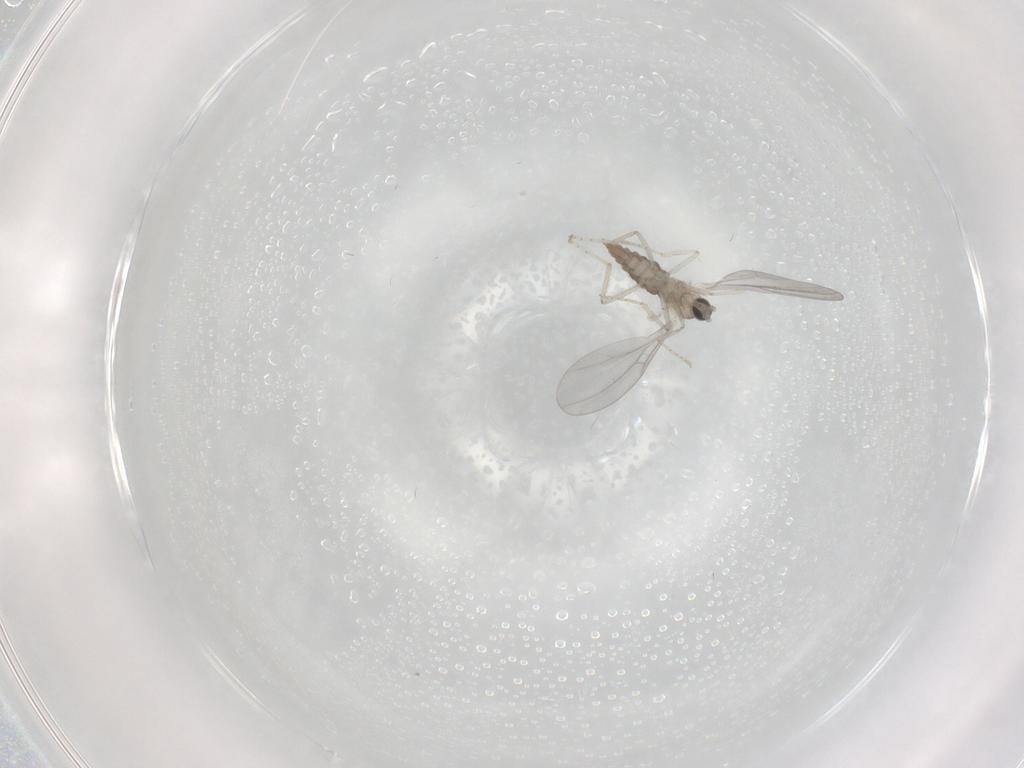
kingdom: Animalia
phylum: Arthropoda
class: Insecta
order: Diptera
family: Cecidomyiidae
